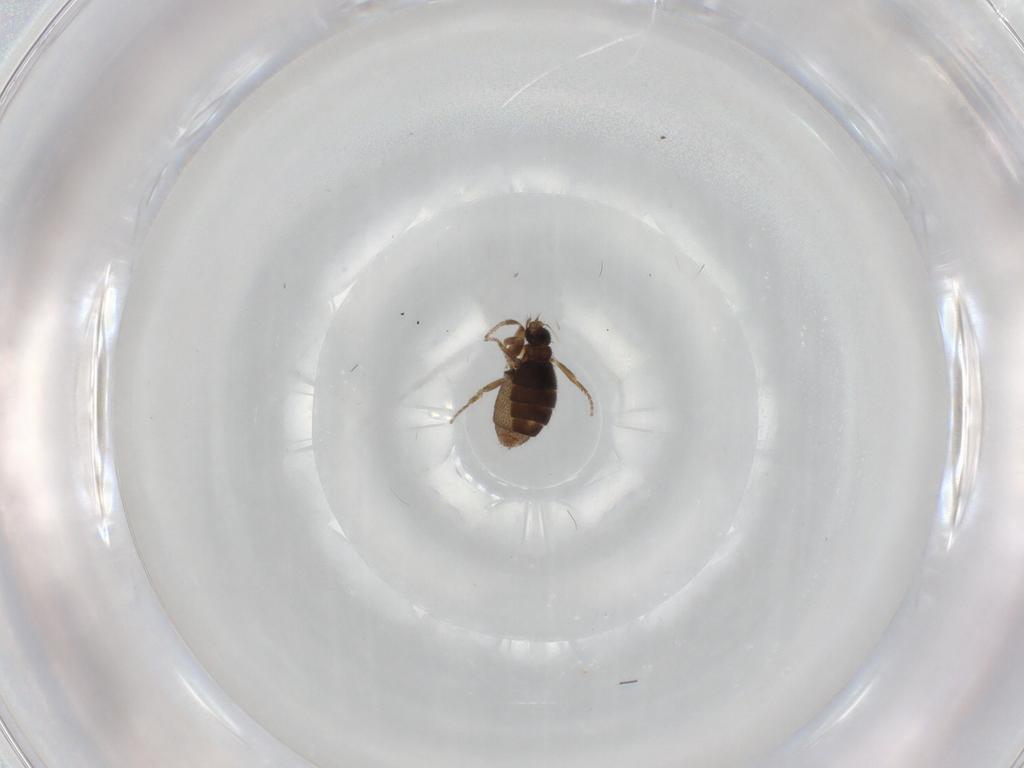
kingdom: Animalia
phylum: Arthropoda
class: Insecta
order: Diptera
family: Phoridae
